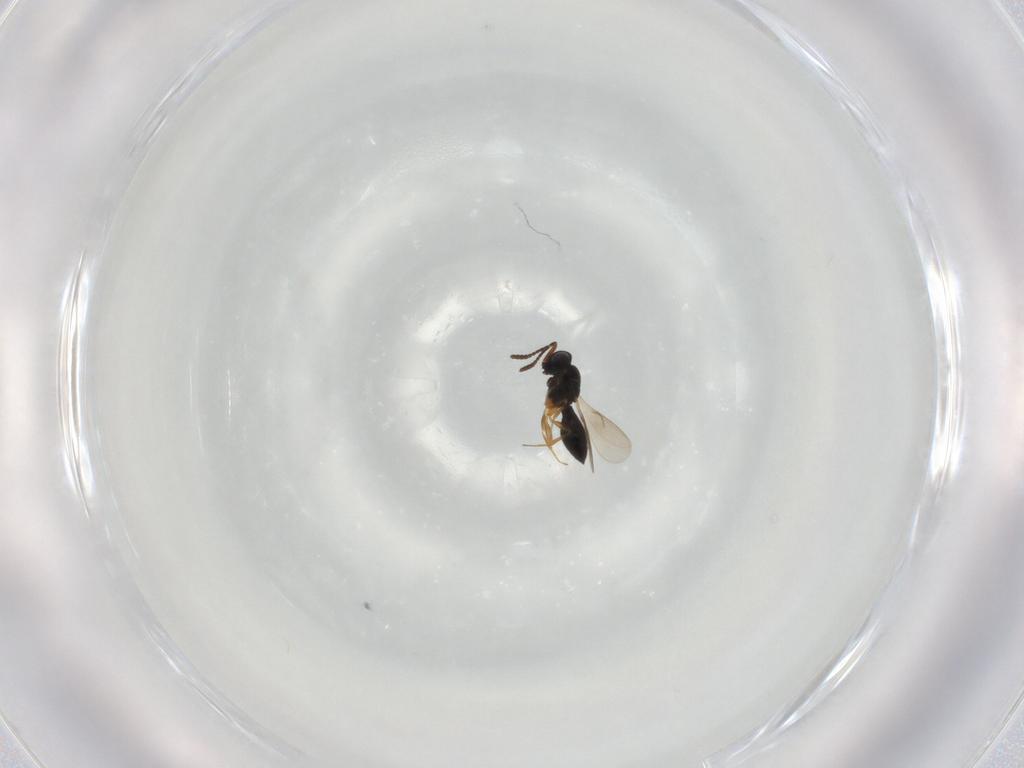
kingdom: Animalia
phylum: Arthropoda
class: Insecta
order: Hymenoptera
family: Scelionidae
